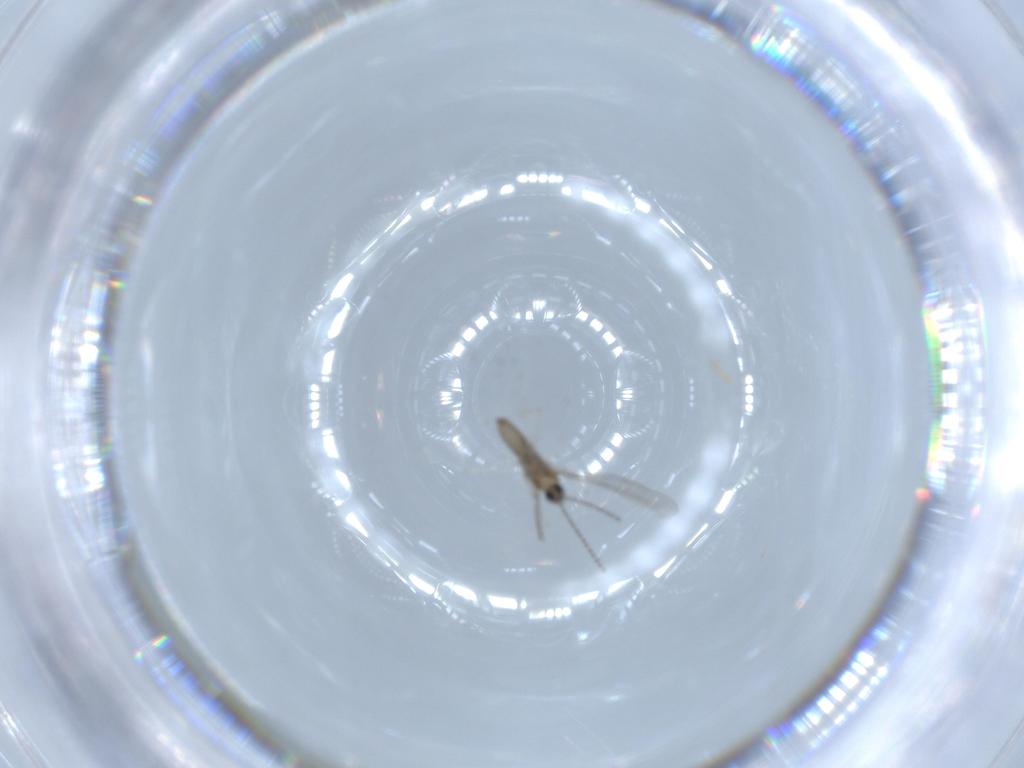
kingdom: Animalia
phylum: Arthropoda
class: Insecta
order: Diptera
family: Cecidomyiidae
